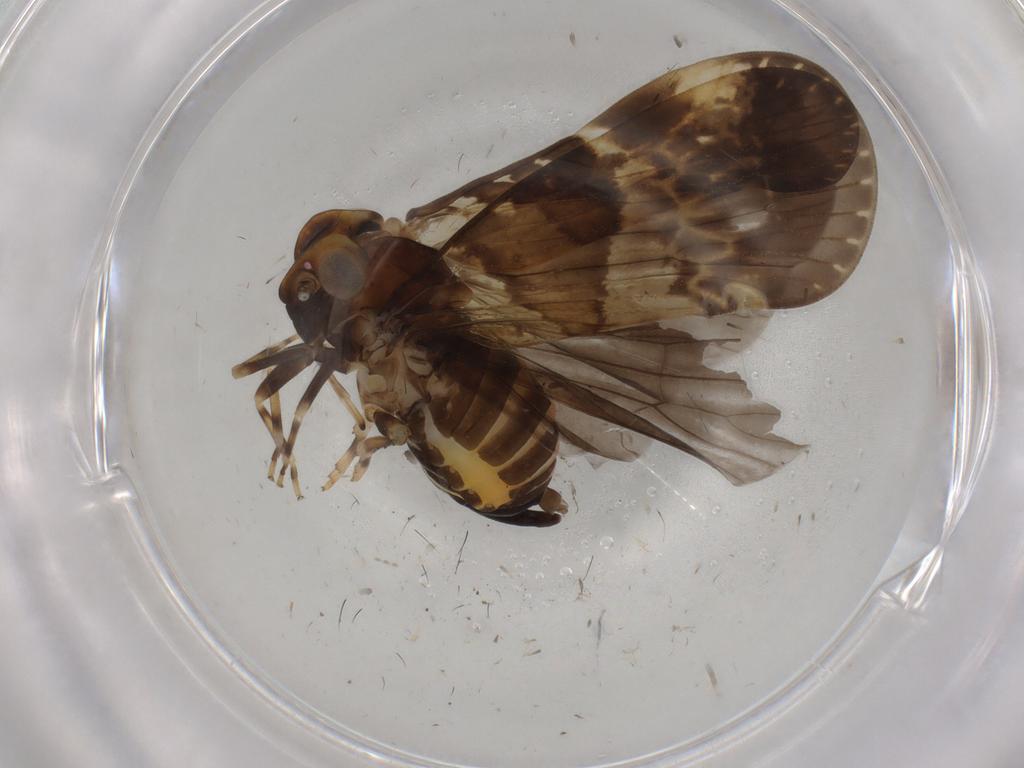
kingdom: Animalia
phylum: Arthropoda
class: Insecta
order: Hemiptera
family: Cixiidae
